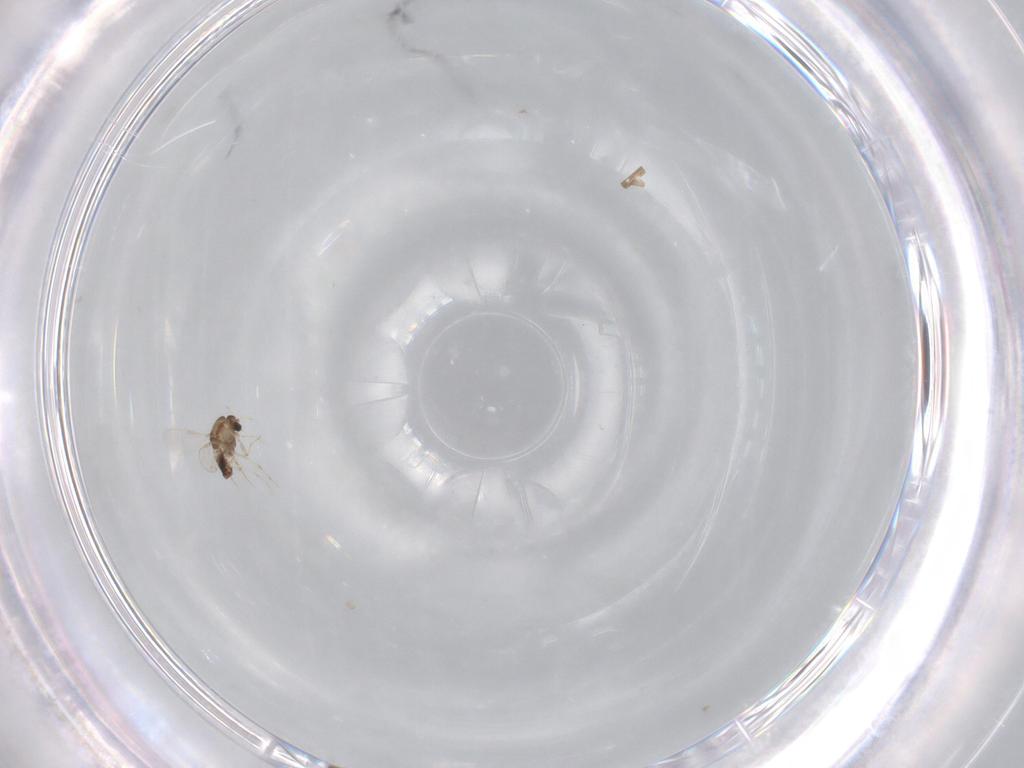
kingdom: Animalia
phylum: Arthropoda
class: Insecta
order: Diptera
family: Chironomidae
